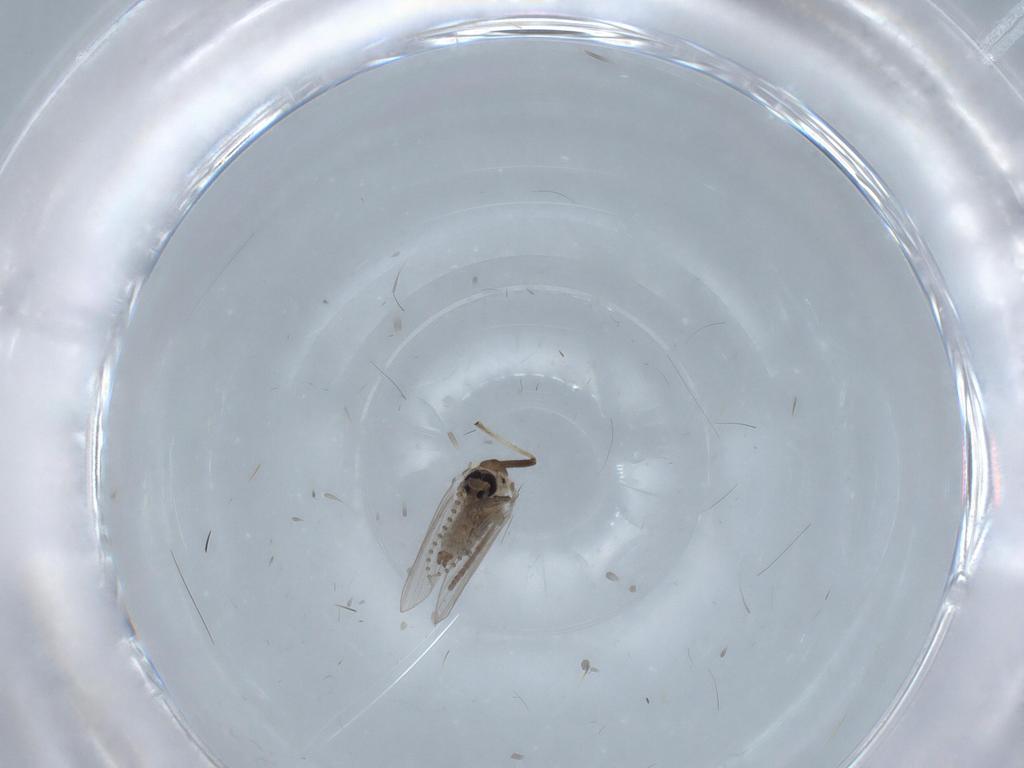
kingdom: Animalia
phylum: Arthropoda
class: Insecta
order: Diptera
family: Psychodidae
